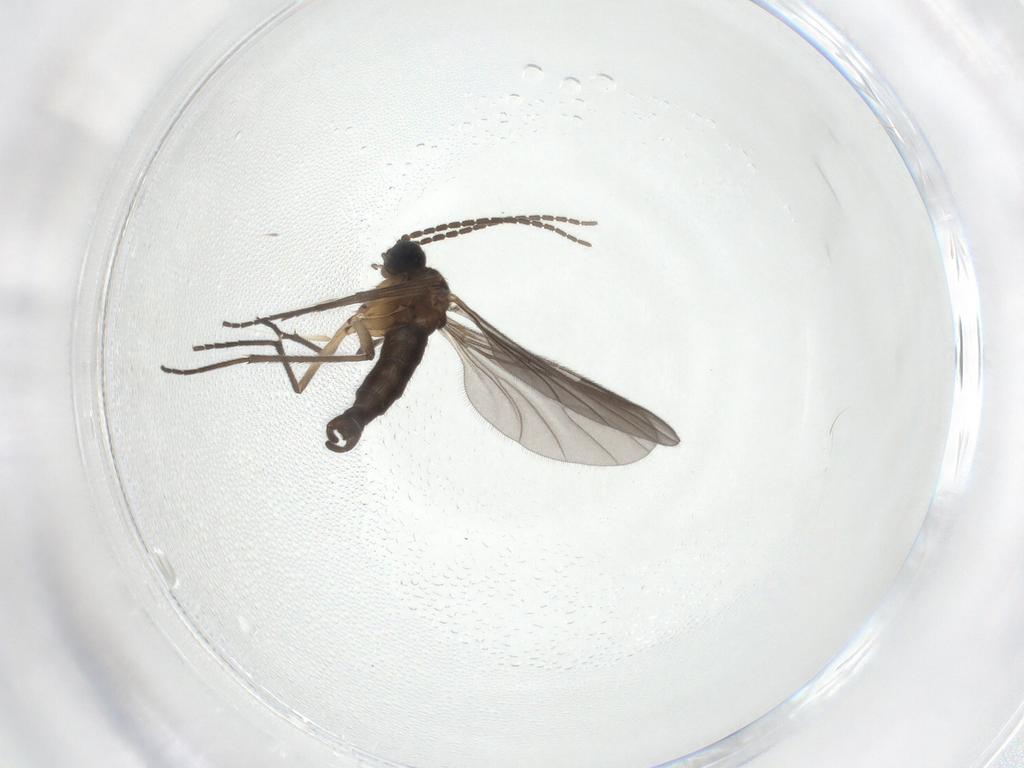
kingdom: Animalia
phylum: Arthropoda
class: Insecta
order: Diptera
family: Sciaridae
